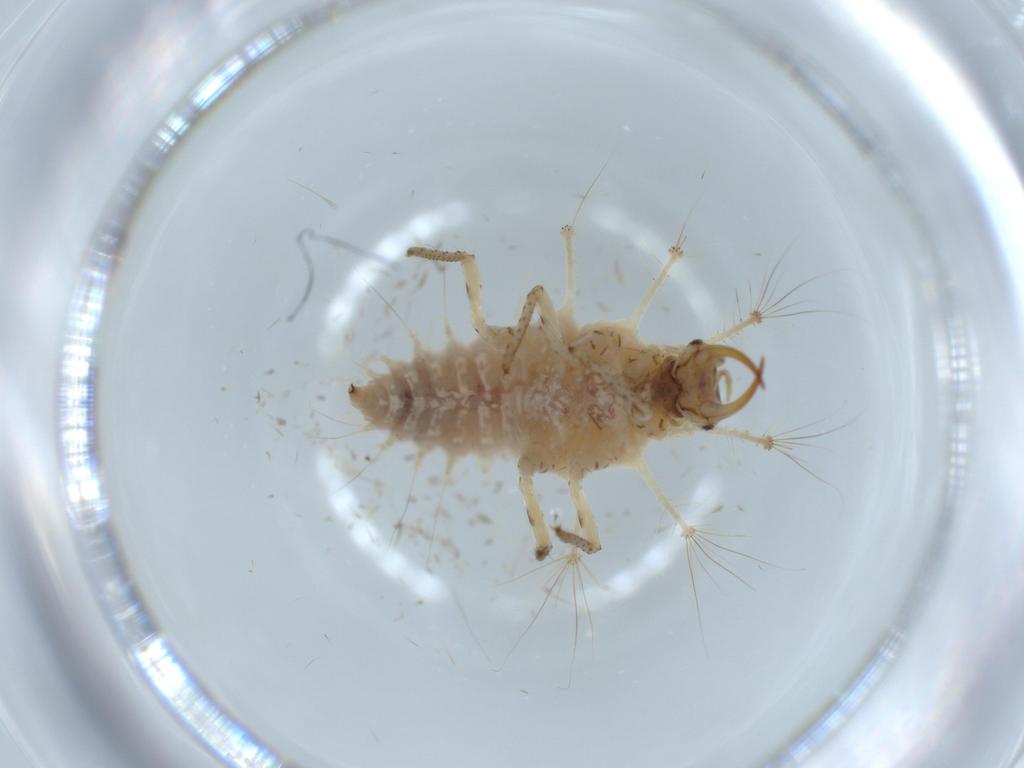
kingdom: Animalia
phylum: Arthropoda
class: Insecta
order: Neuroptera
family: Chrysopidae
